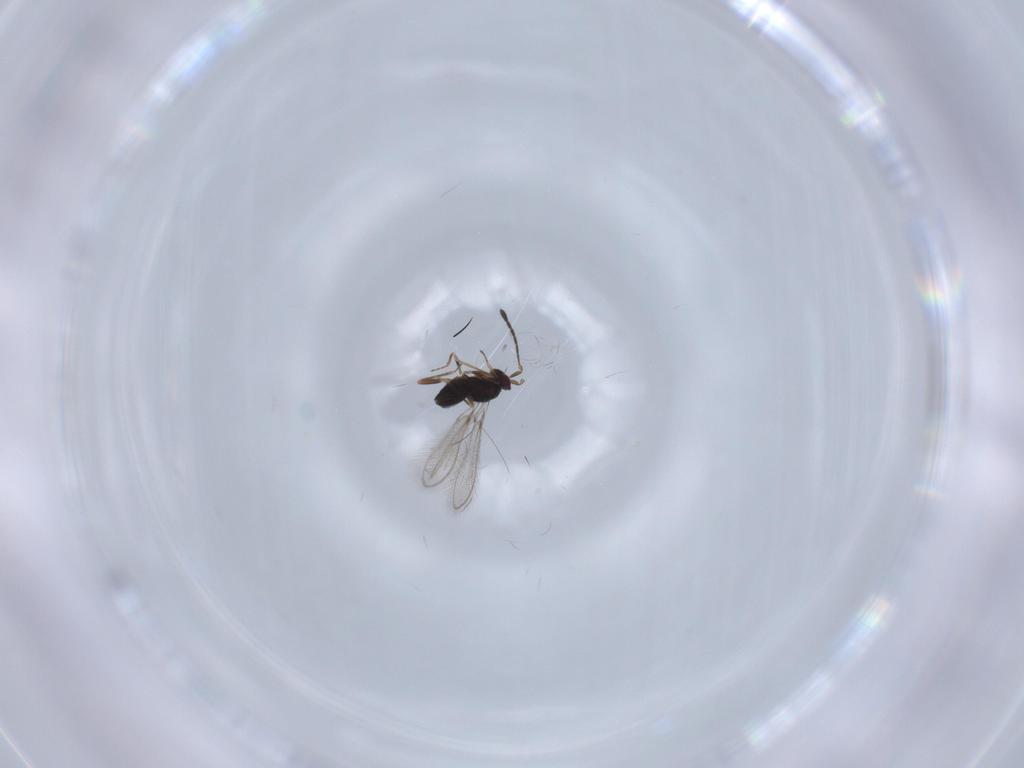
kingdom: Animalia
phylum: Arthropoda
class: Insecta
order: Hymenoptera
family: Mymaridae
